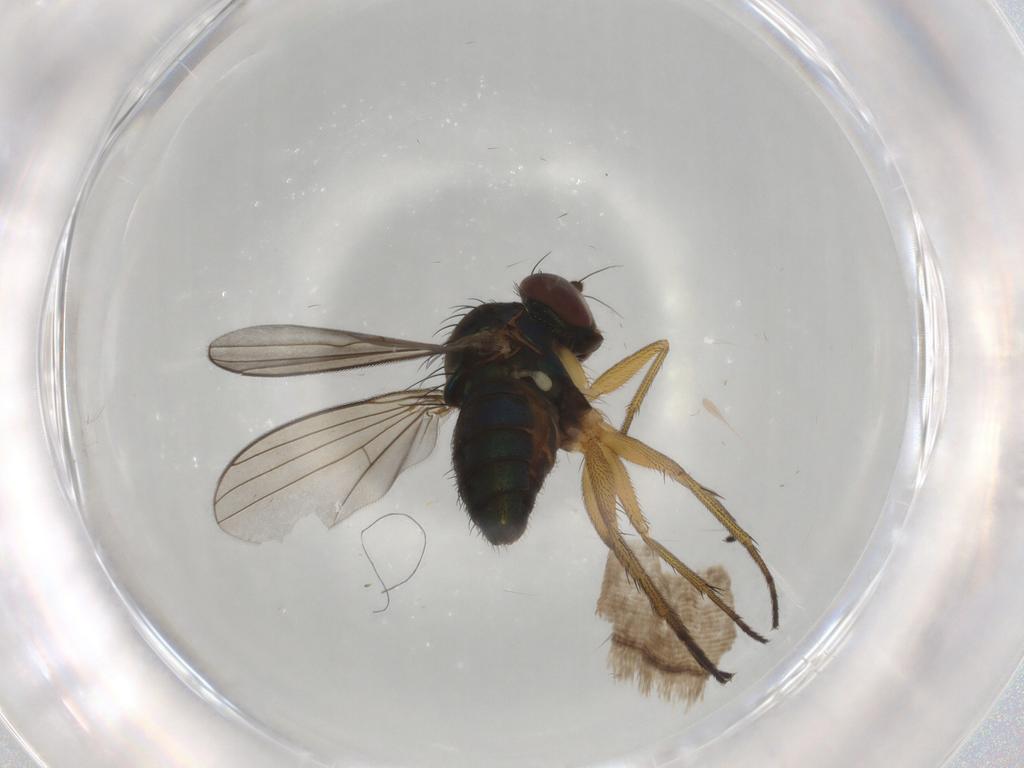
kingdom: Animalia
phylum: Arthropoda
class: Insecta
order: Diptera
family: Dolichopodidae
